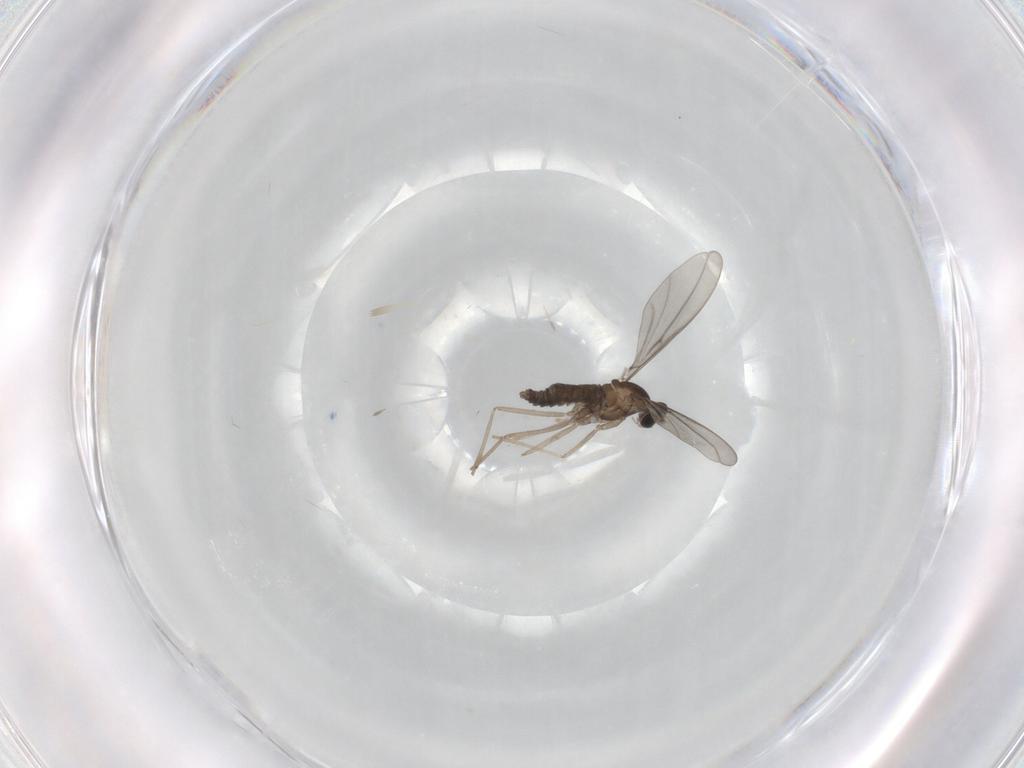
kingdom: Animalia
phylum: Arthropoda
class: Insecta
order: Diptera
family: Cecidomyiidae
